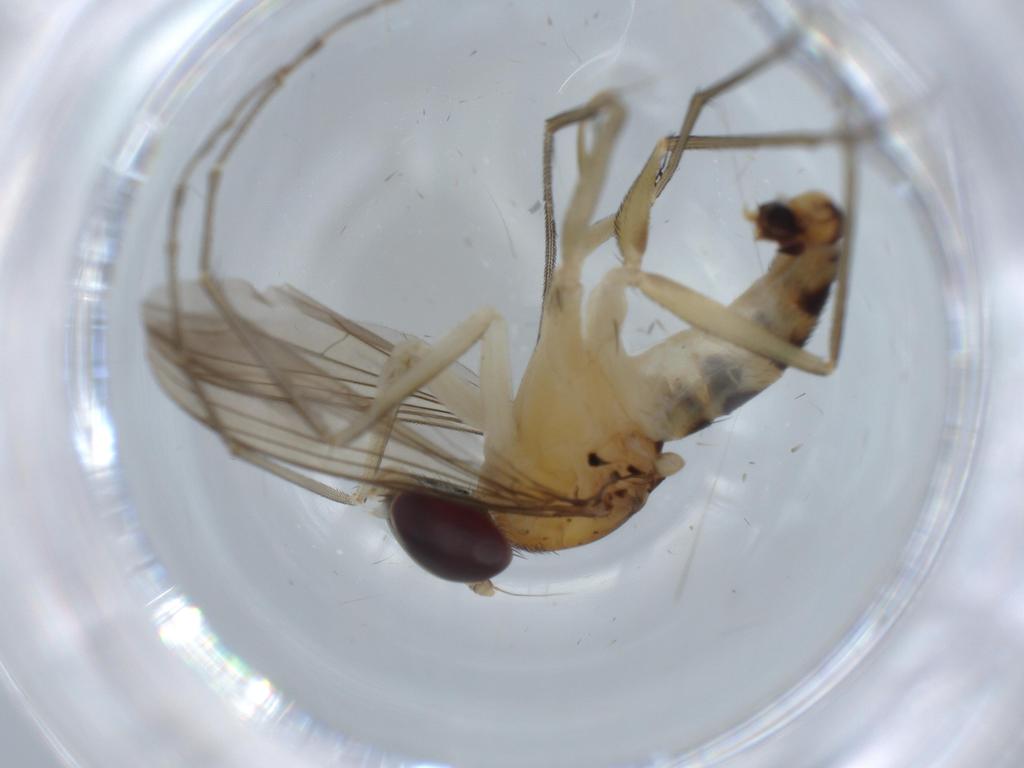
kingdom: Animalia
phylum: Arthropoda
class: Insecta
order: Diptera
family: Dolichopodidae
